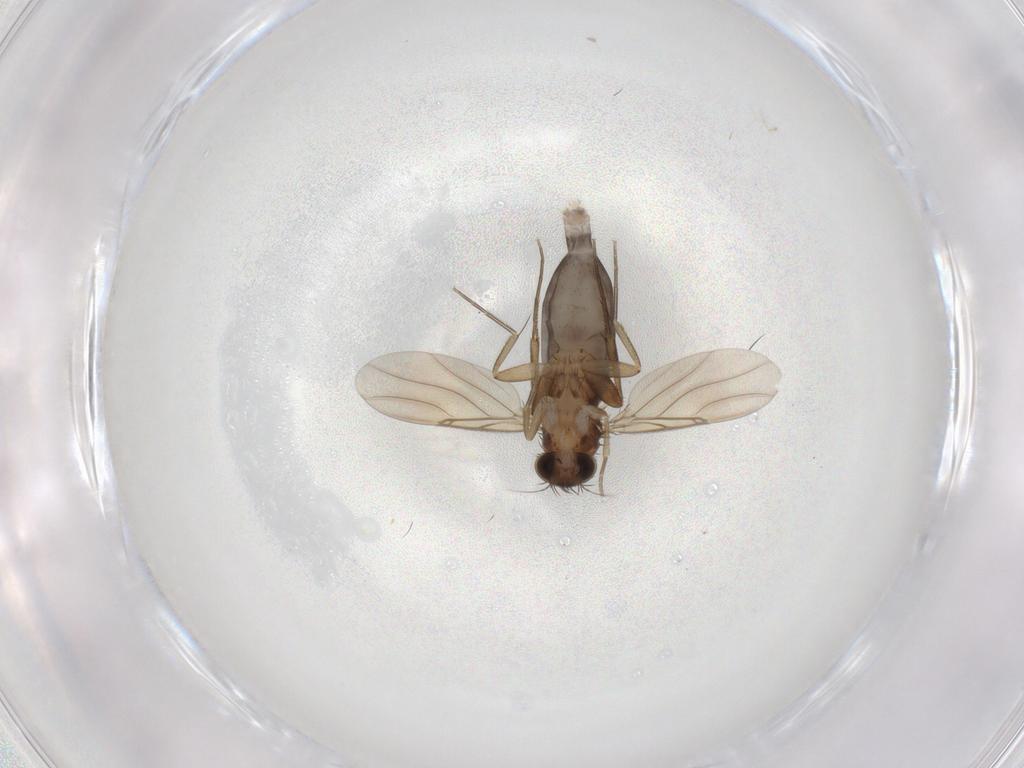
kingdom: Animalia
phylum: Arthropoda
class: Insecta
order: Diptera
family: Phoridae
